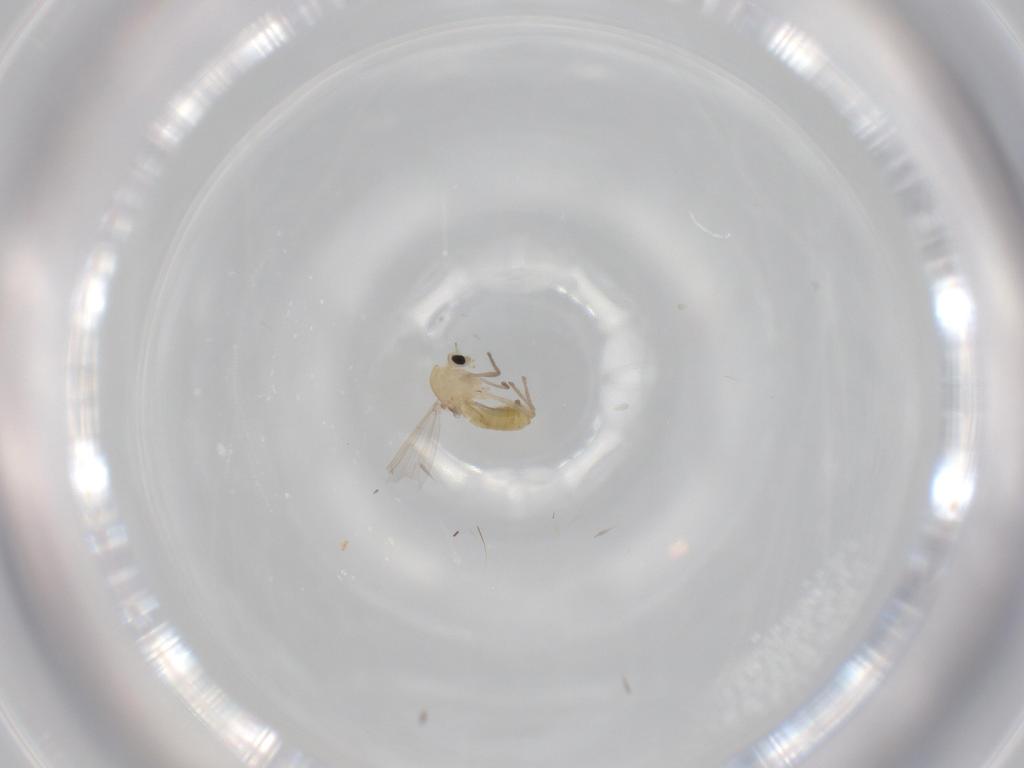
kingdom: Animalia
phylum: Arthropoda
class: Insecta
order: Diptera
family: Chironomidae
